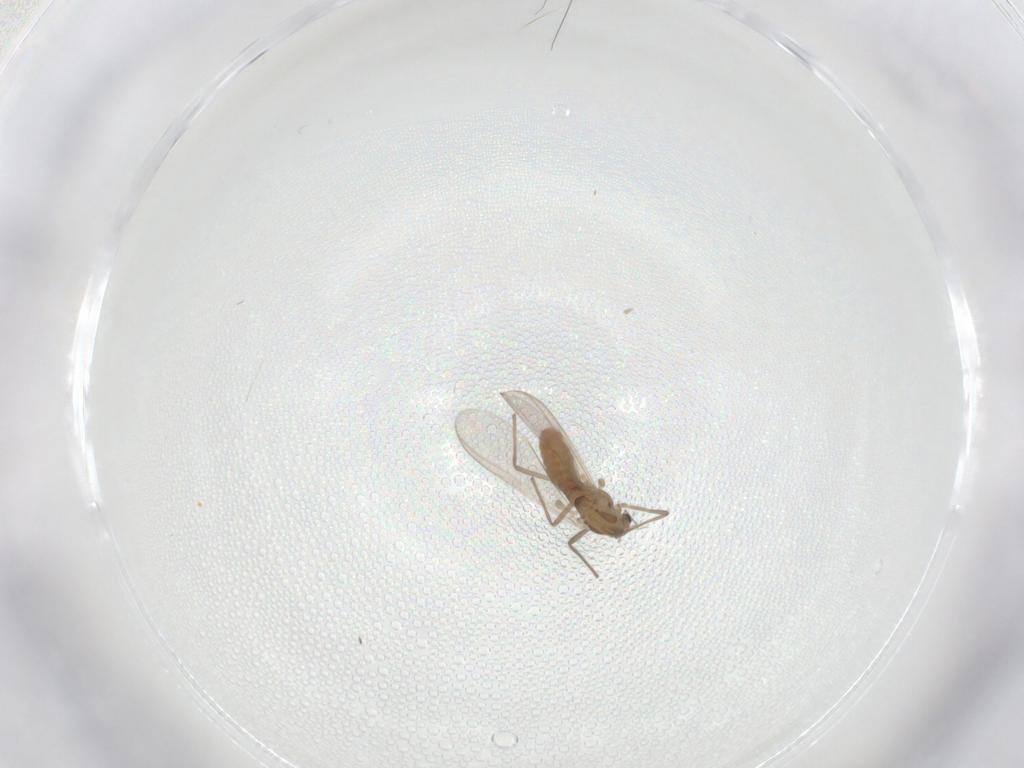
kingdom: Animalia
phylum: Arthropoda
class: Insecta
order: Diptera
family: Chironomidae
